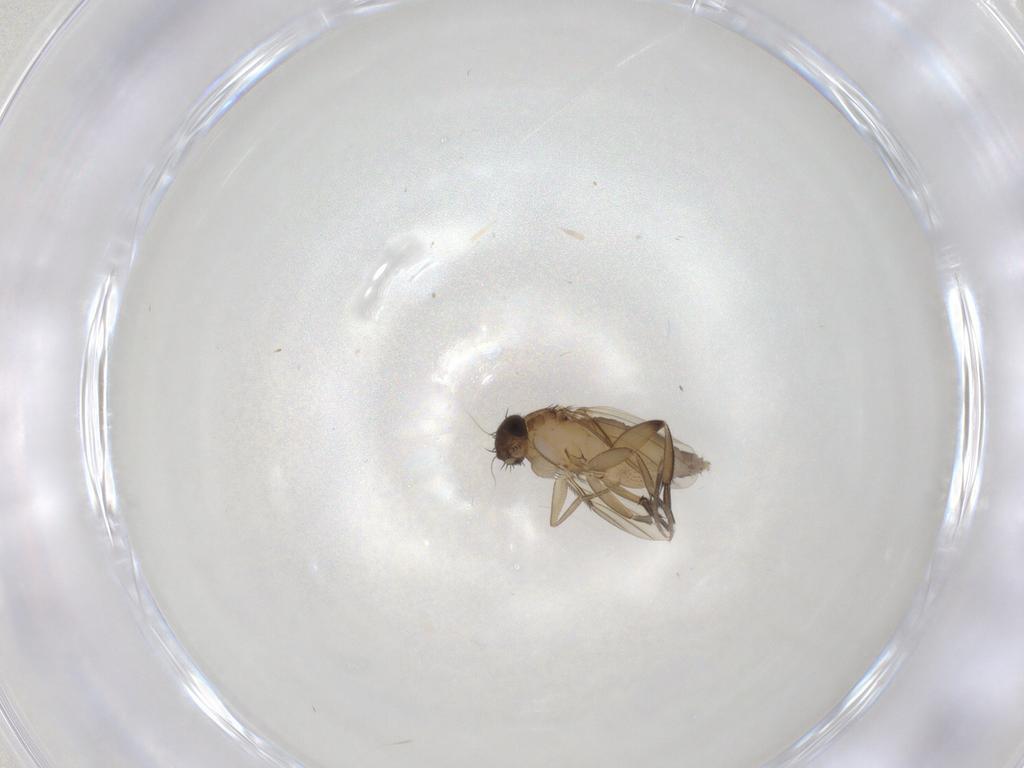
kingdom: Animalia
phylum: Arthropoda
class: Insecta
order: Diptera
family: Phoridae
